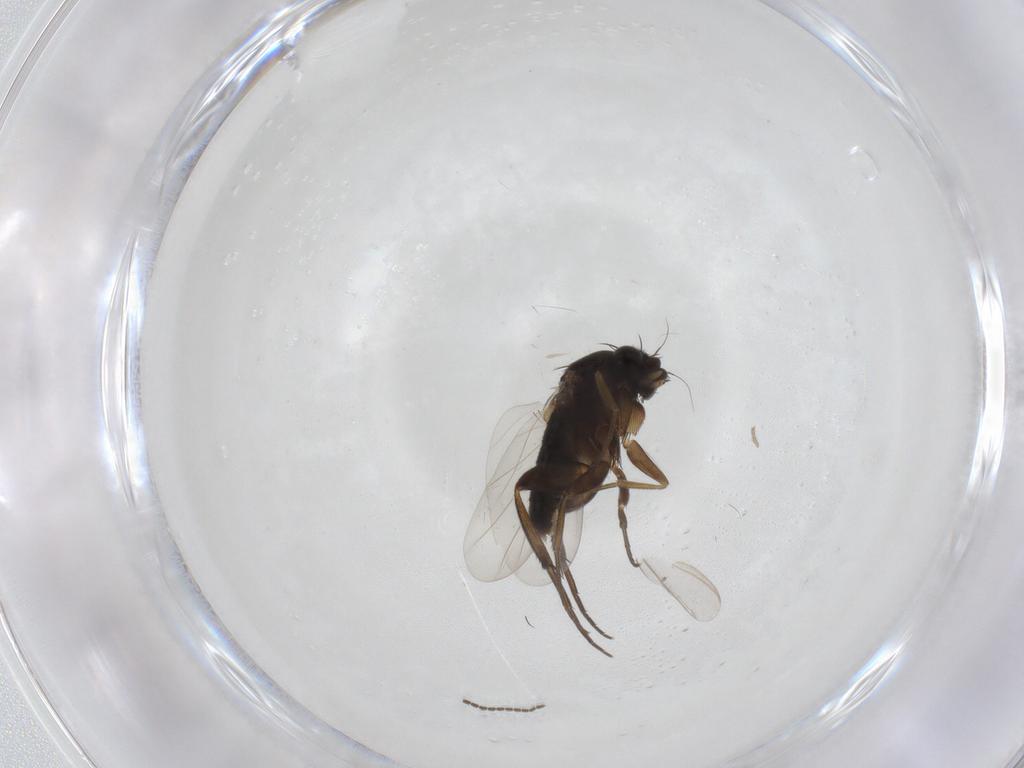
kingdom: Animalia
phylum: Arthropoda
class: Insecta
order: Diptera
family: Phoridae
